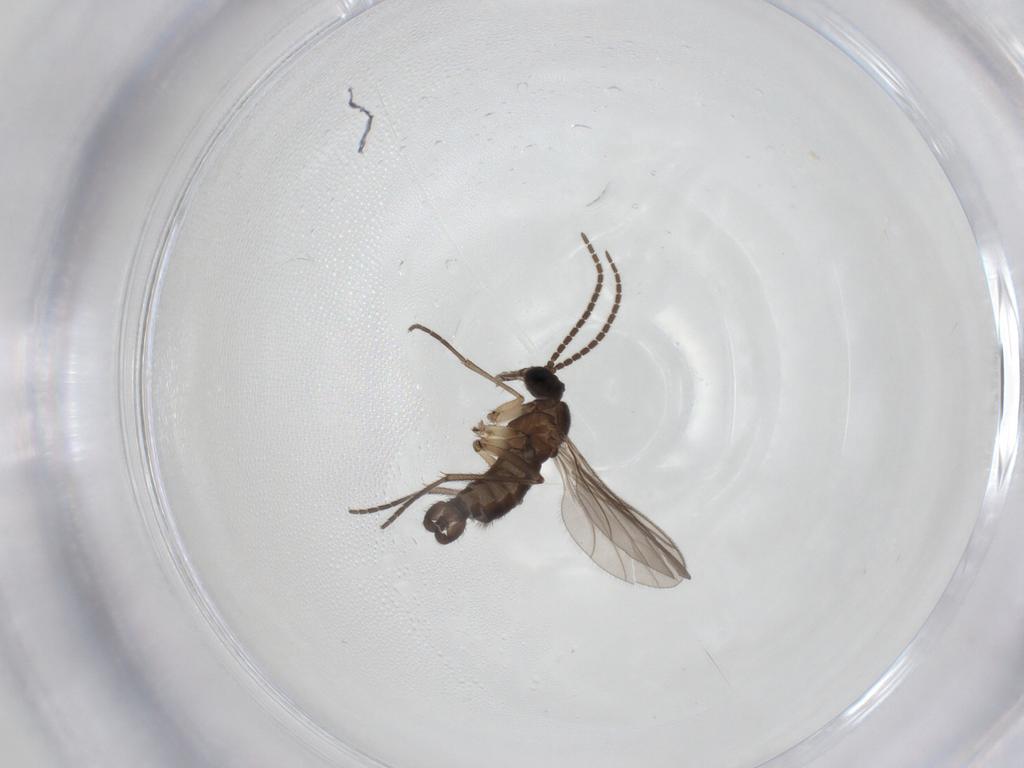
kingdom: Animalia
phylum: Arthropoda
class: Insecta
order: Diptera
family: Sciaridae
